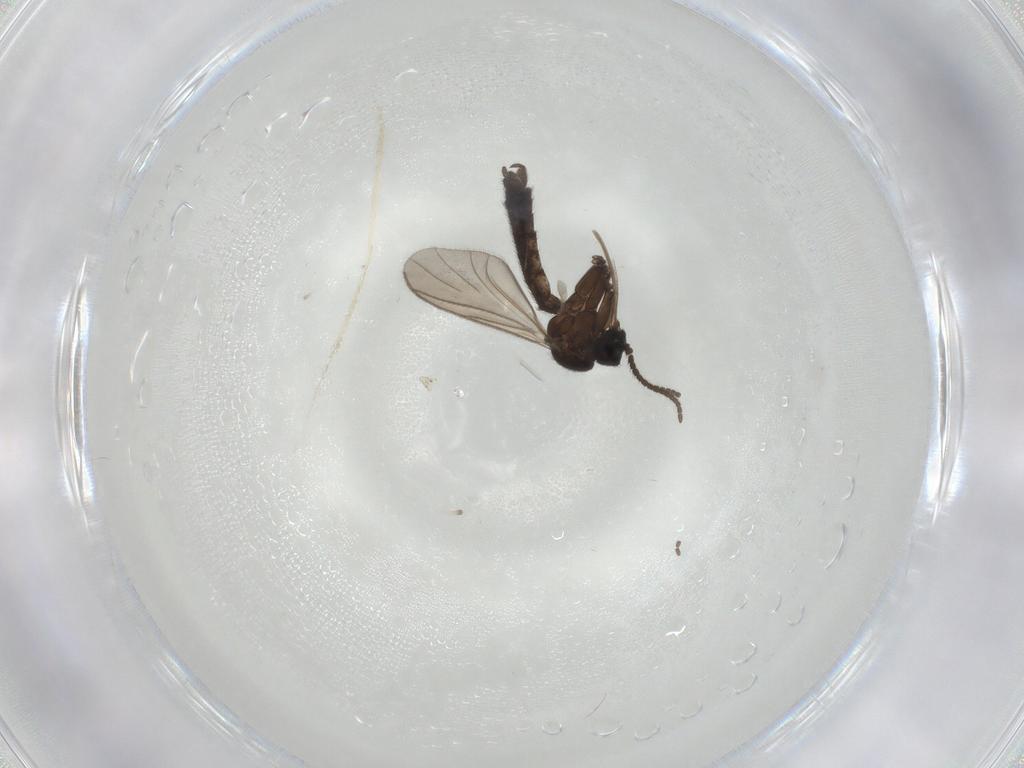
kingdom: Animalia
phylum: Arthropoda
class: Insecta
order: Diptera
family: Keroplatidae
